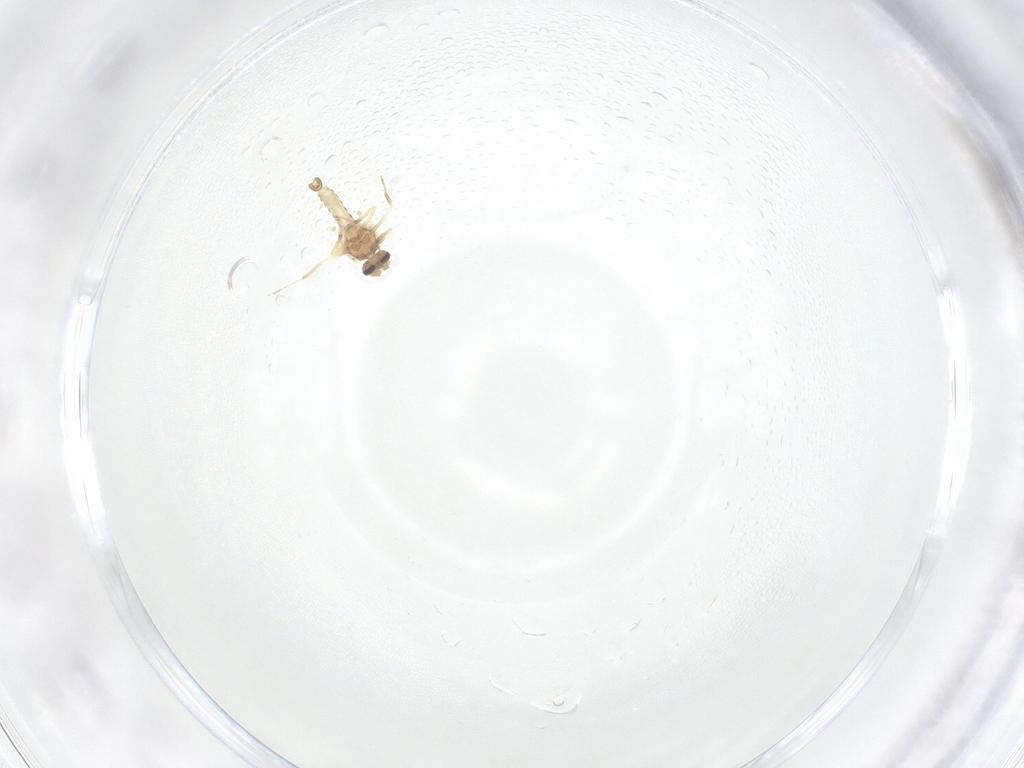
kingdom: Animalia
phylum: Arthropoda
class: Insecta
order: Diptera
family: Ceratopogonidae
